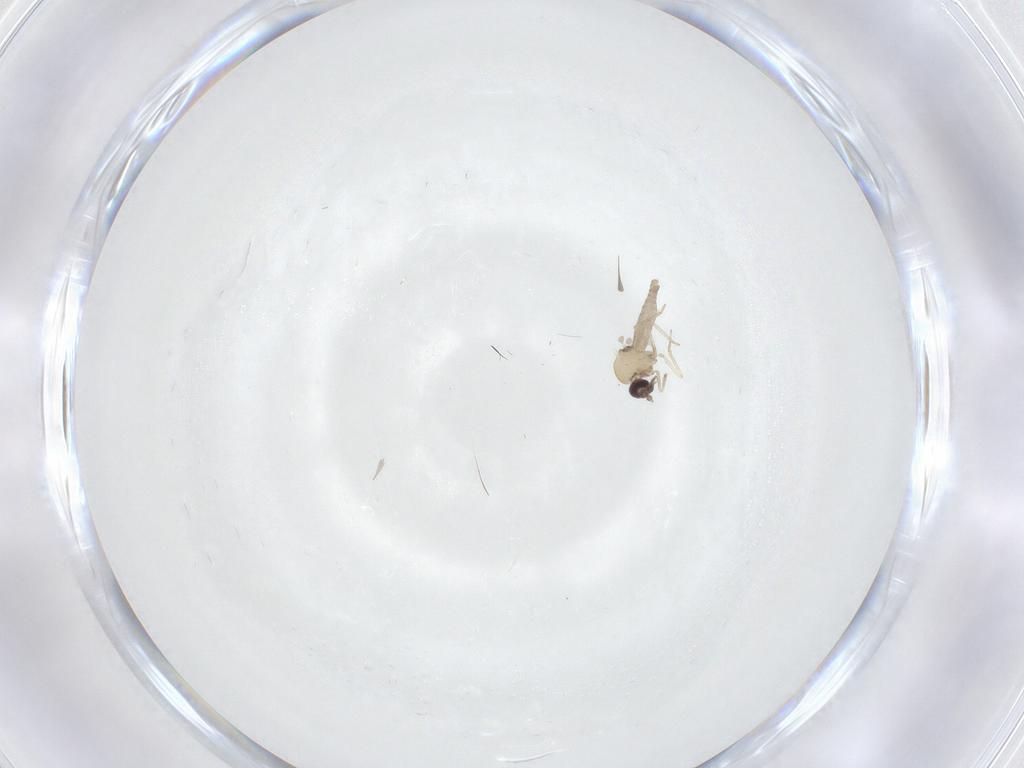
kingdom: Animalia
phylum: Arthropoda
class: Insecta
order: Diptera
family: Ceratopogonidae
